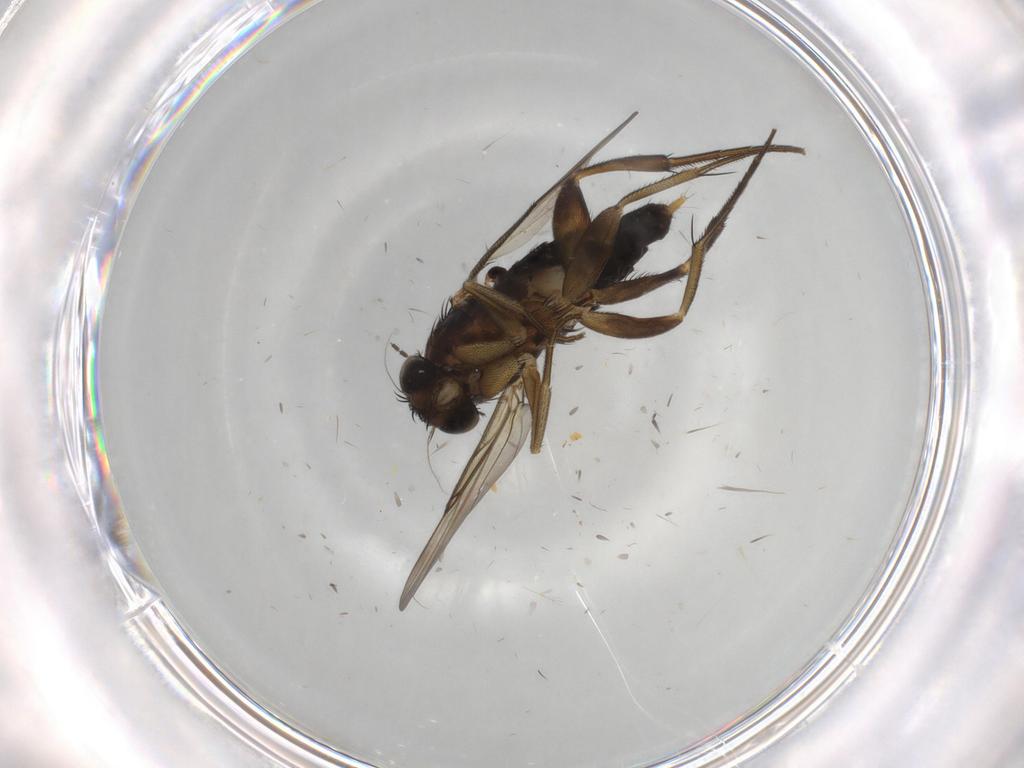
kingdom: Animalia
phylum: Arthropoda
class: Insecta
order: Diptera
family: Phoridae
